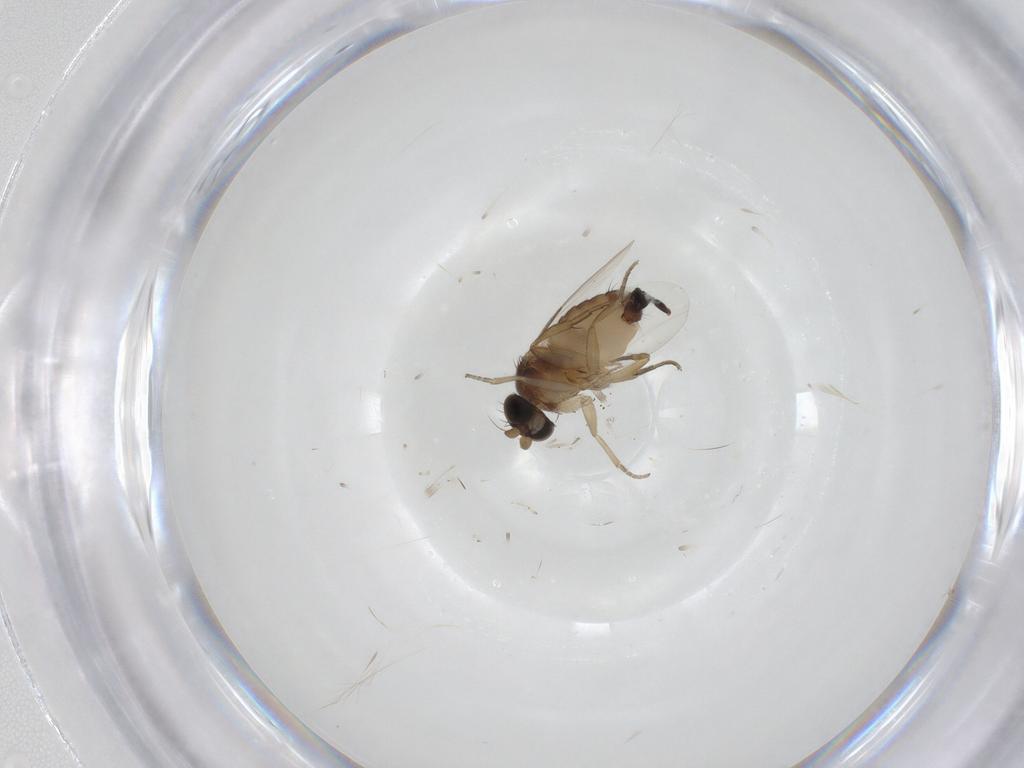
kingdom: Animalia
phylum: Arthropoda
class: Insecta
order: Diptera
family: Phoridae
